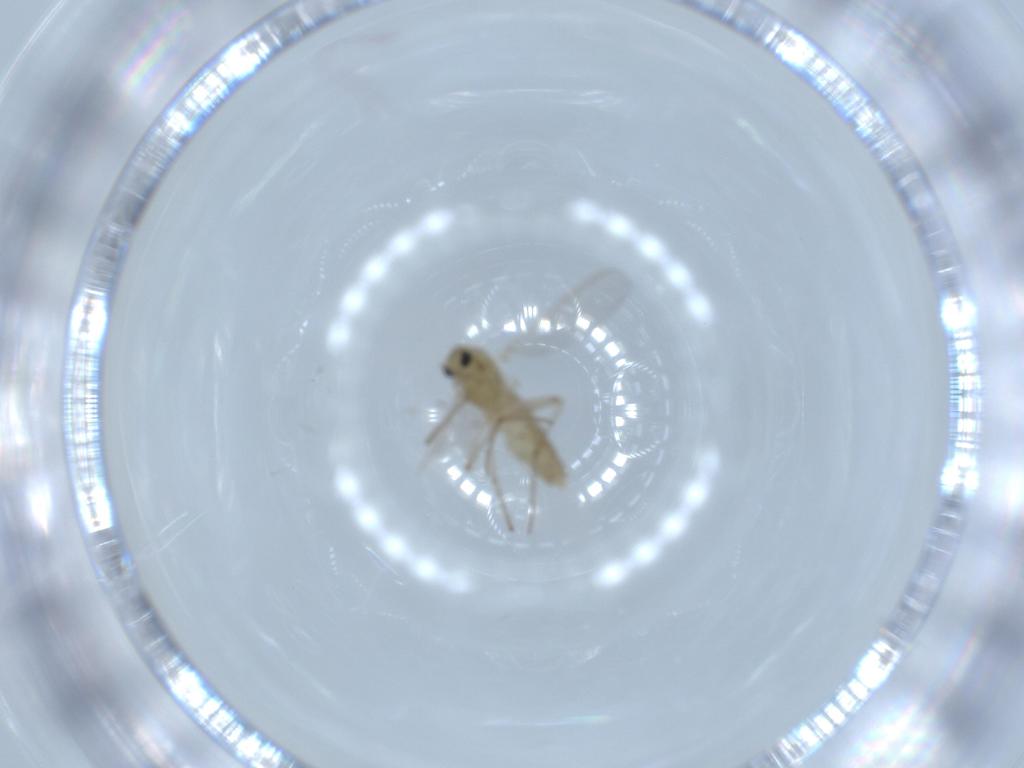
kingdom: Animalia
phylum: Arthropoda
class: Insecta
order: Diptera
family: Chironomidae
